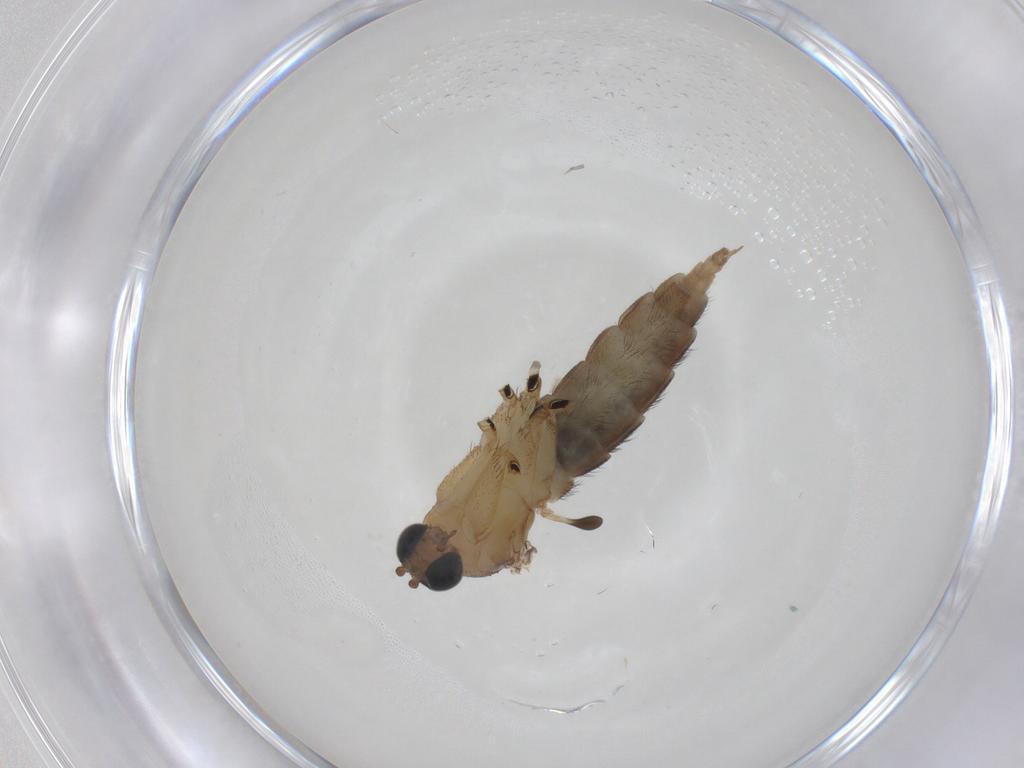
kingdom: Animalia
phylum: Arthropoda
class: Insecta
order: Diptera
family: Sciaridae
